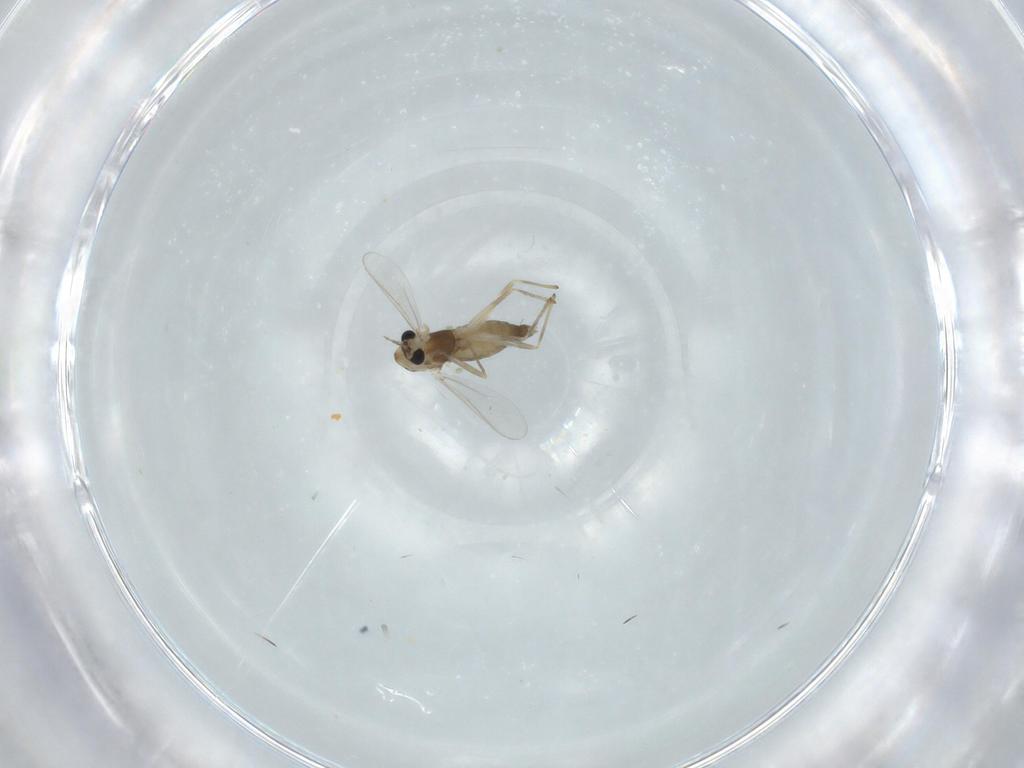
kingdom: Animalia
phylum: Arthropoda
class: Insecta
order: Diptera
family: Chironomidae
